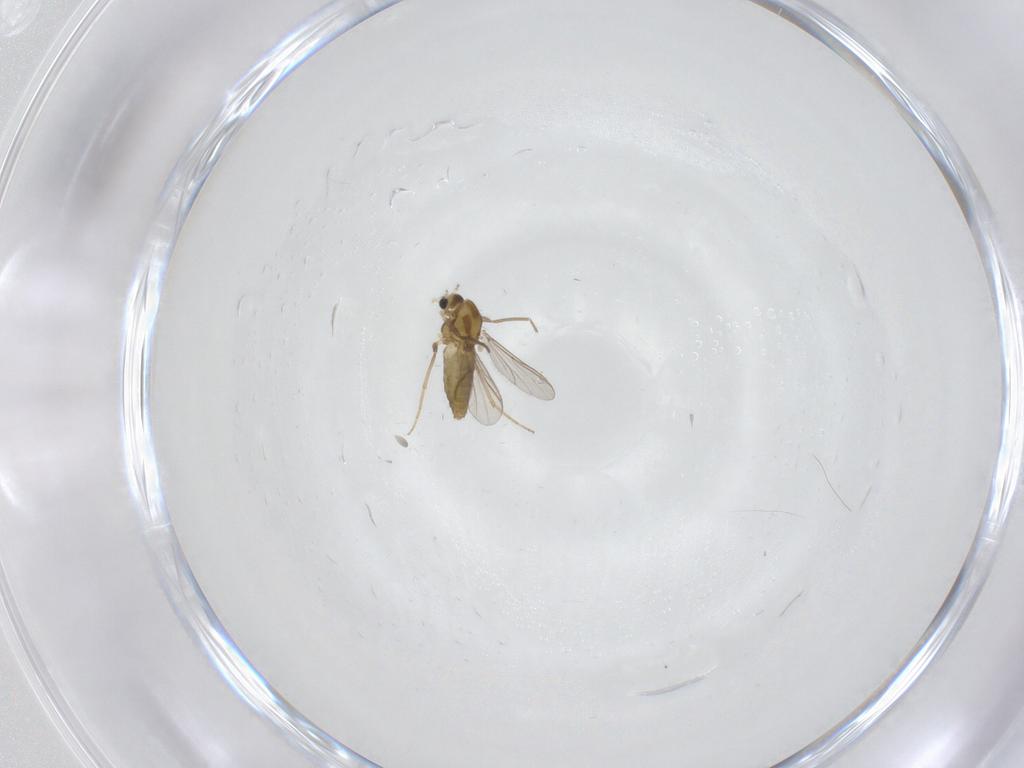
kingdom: Animalia
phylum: Arthropoda
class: Insecta
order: Diptera
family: Chironomidae
